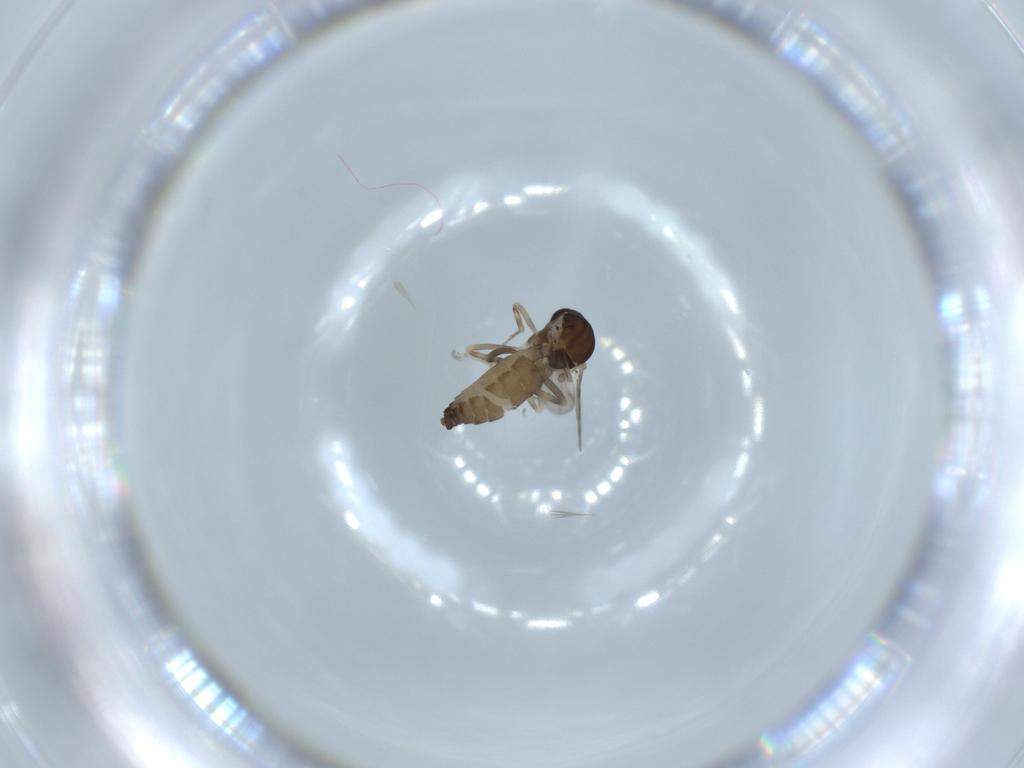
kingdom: Animalia
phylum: Arthropoda
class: Insecta
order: Diptera
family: Ceratopogonidae
